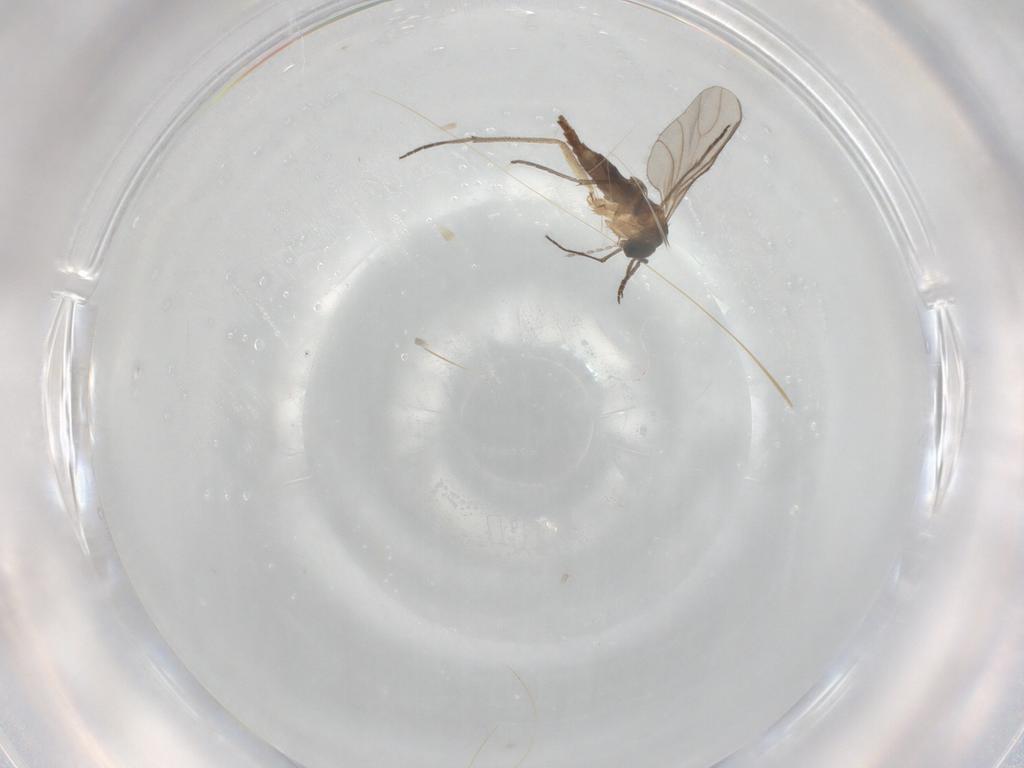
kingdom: Animalia
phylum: Arthropoda
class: Insecta
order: Diptera
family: Sciaridae
